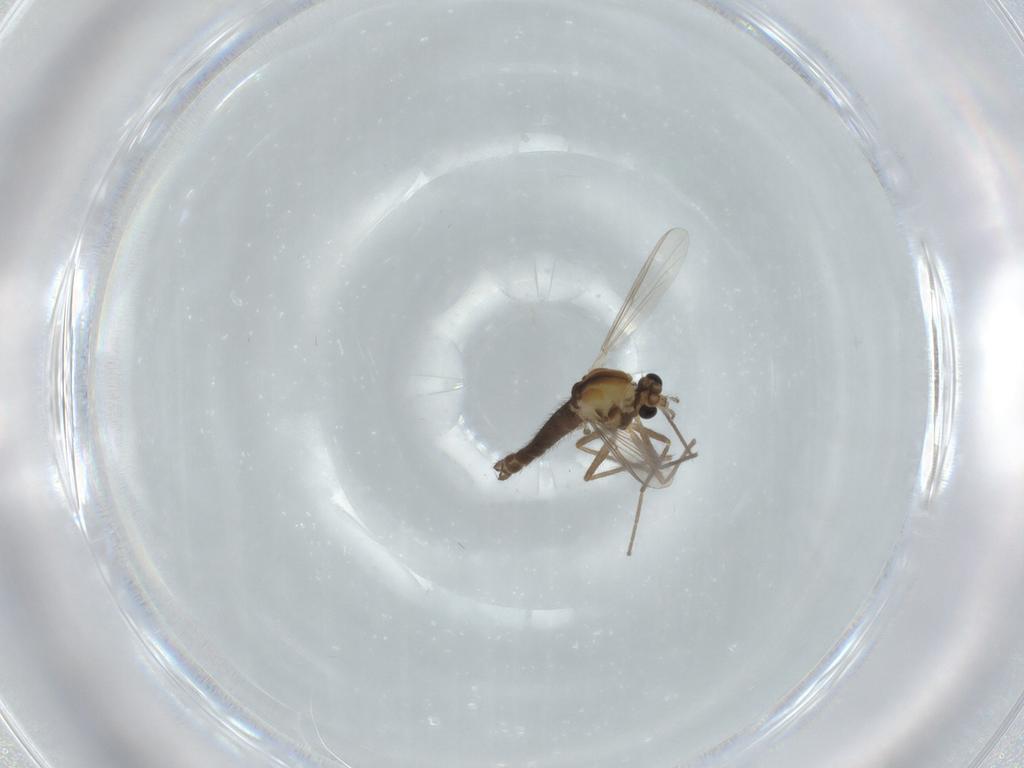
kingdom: Animalia
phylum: Arthropoda
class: Insecta
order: Diptera
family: Chironomidae
